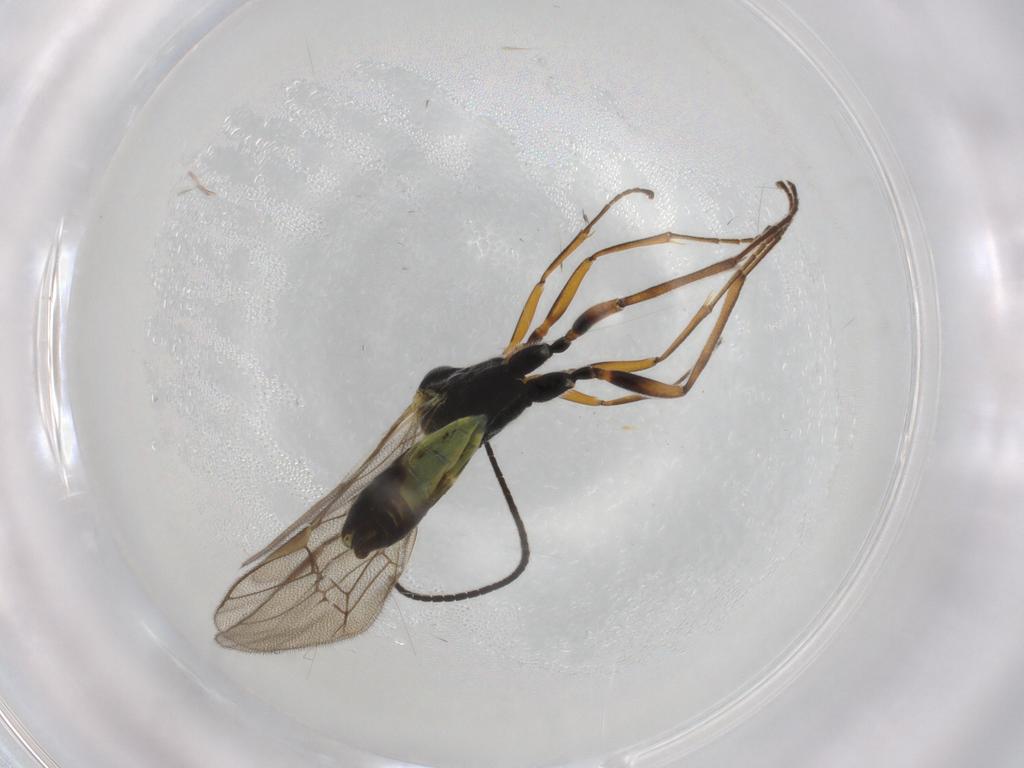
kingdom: Animalia
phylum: Arthropoda
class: Insecta
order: Hymenoptera
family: Ichneumonidae
